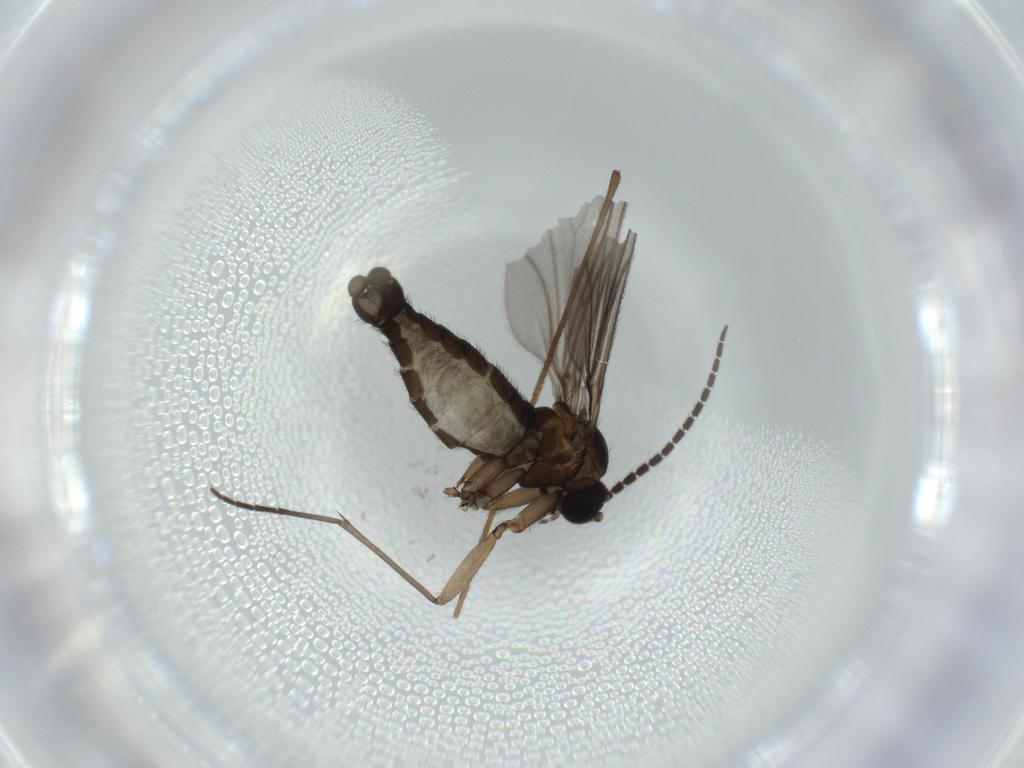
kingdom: Animalia
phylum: Arthropoda
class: Insecta
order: Diptera
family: Sciaridae
